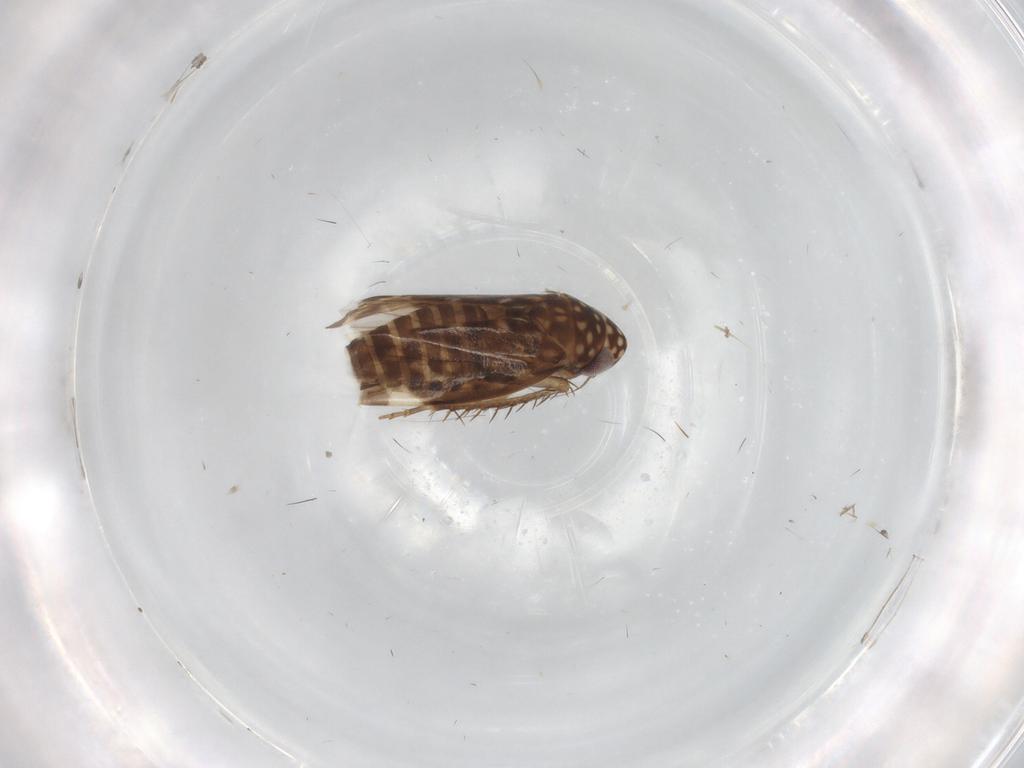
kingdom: Animalia
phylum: Arthropoda
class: Insecta
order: Hemiptera
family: Cicadellidae
